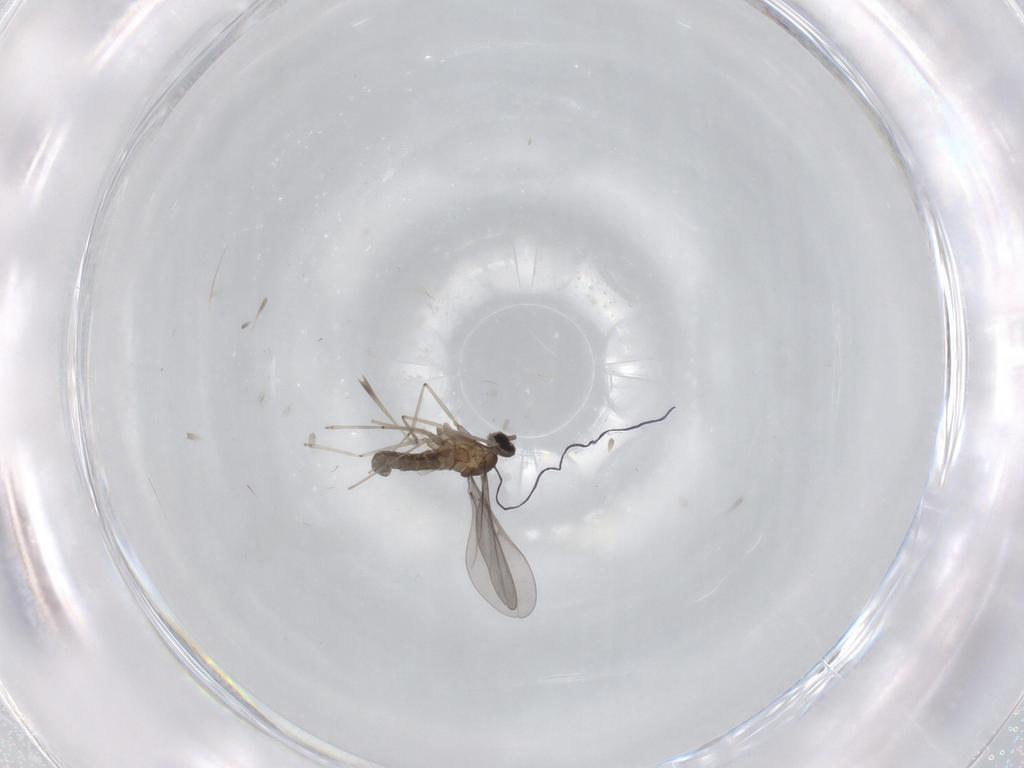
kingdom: Animalia
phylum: Arthropoda
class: Insecta
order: Diptera
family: Cecidomyiidae
